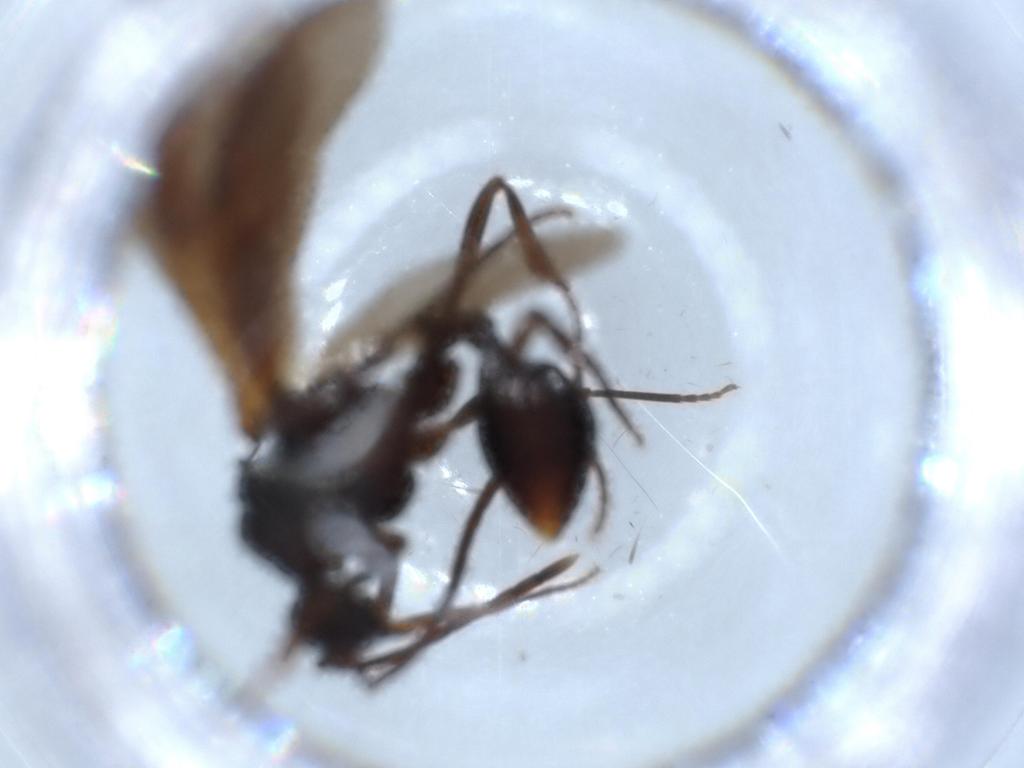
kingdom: Animalia
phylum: Arthropoda
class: Insecta
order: Hymenoptera
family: Formicidae
